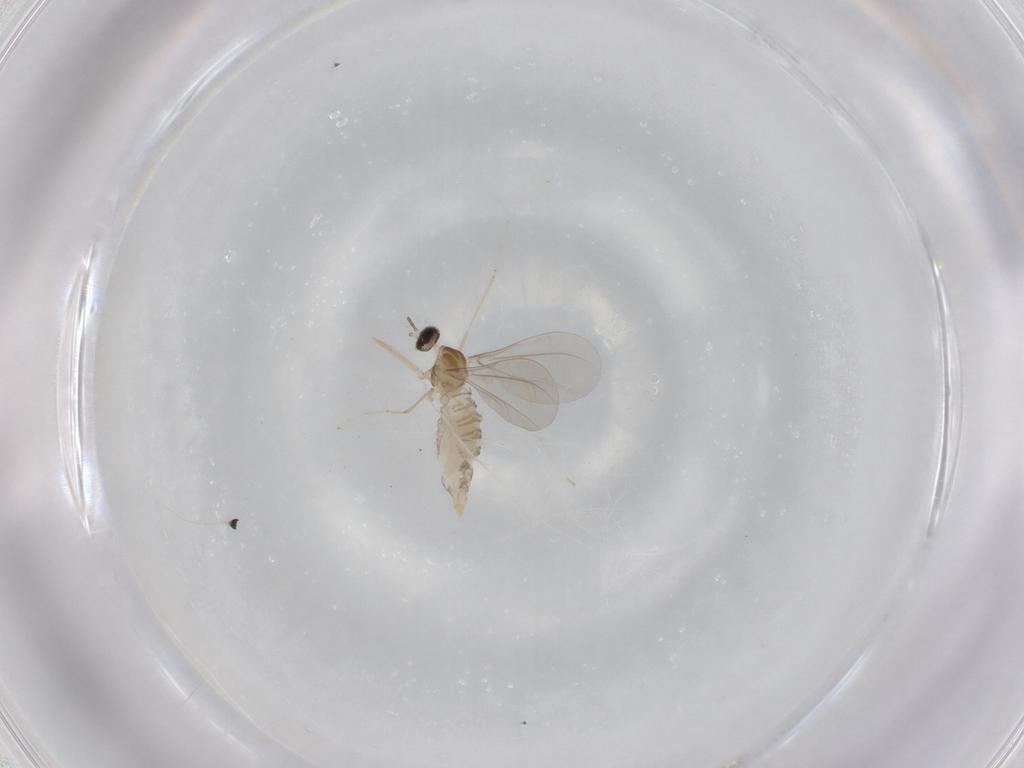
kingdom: Animalia
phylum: Arthropoda
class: Insecta
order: Diptera
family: Cecidomyiidae
